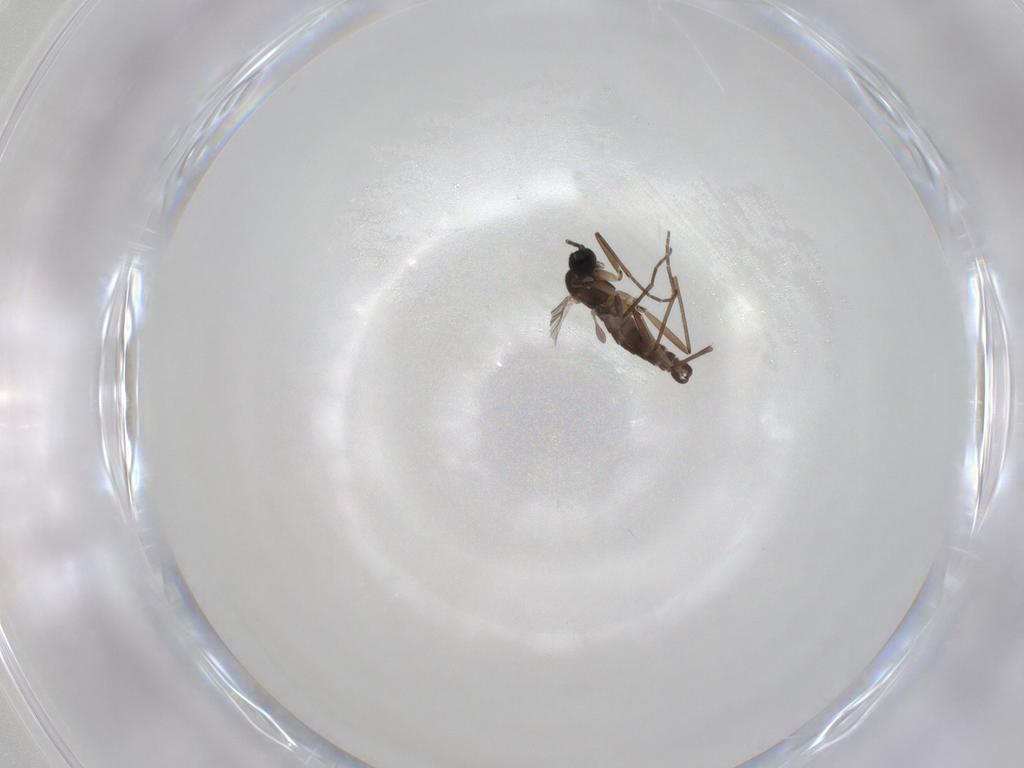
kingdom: Animalia
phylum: Arthropoda
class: Insecta
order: Diptera
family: Sciaridae
